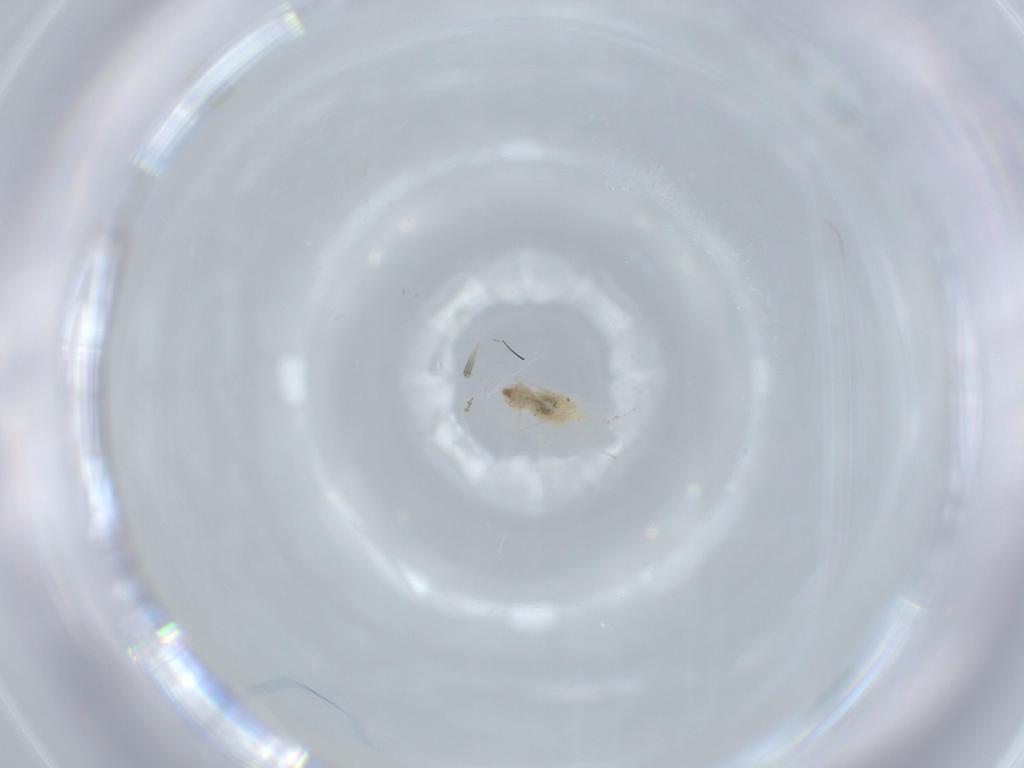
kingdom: Animalia
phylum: Arthropoda
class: Insecta
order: Diptera
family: Cecidomyiidae
